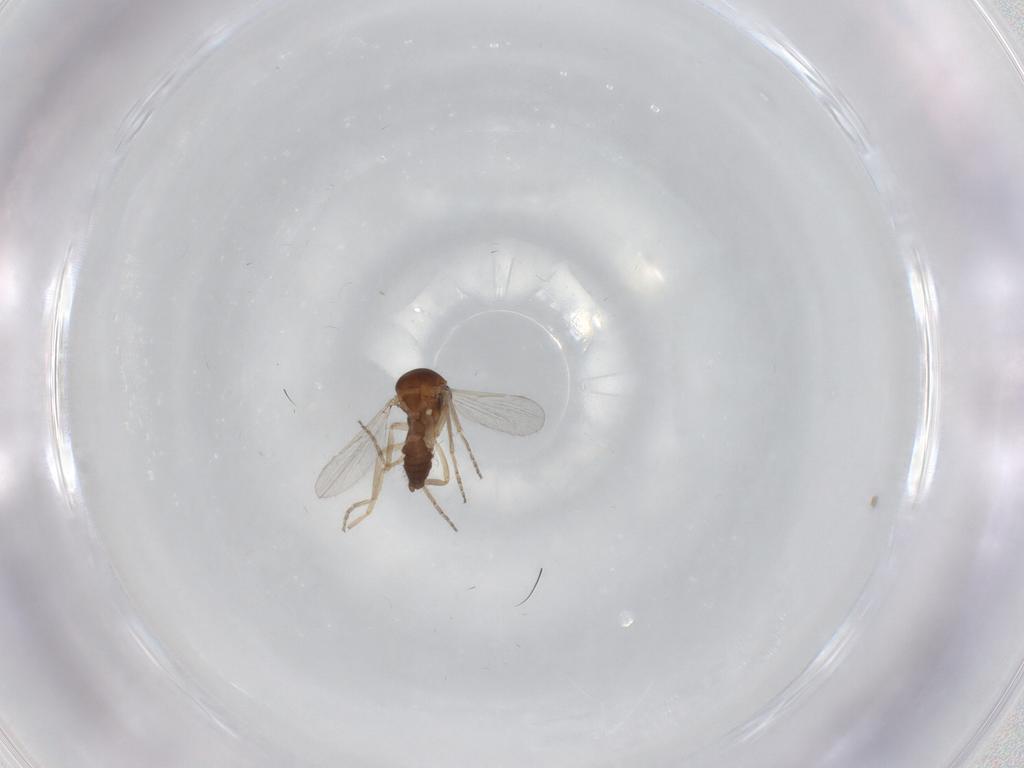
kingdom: Animalia
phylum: Arthropoda
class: Insecta
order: Diptera
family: Ceratopogonidae
